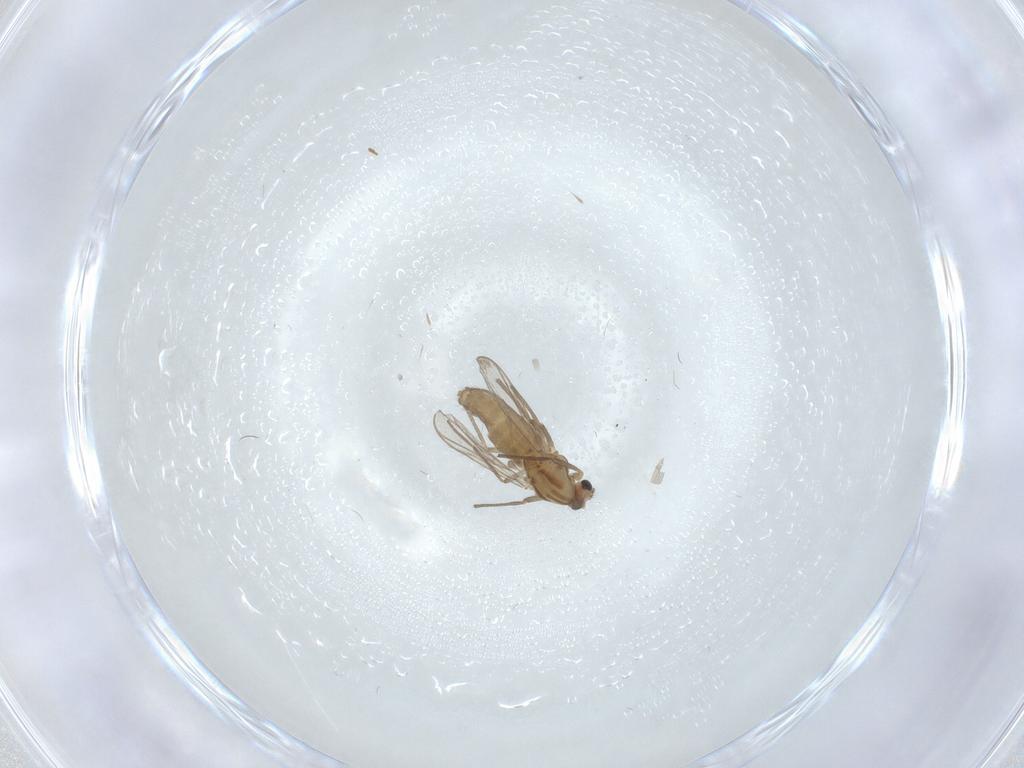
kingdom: Animalia
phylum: Arthropoda
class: Insecta
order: Diptera
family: Chironomidae
